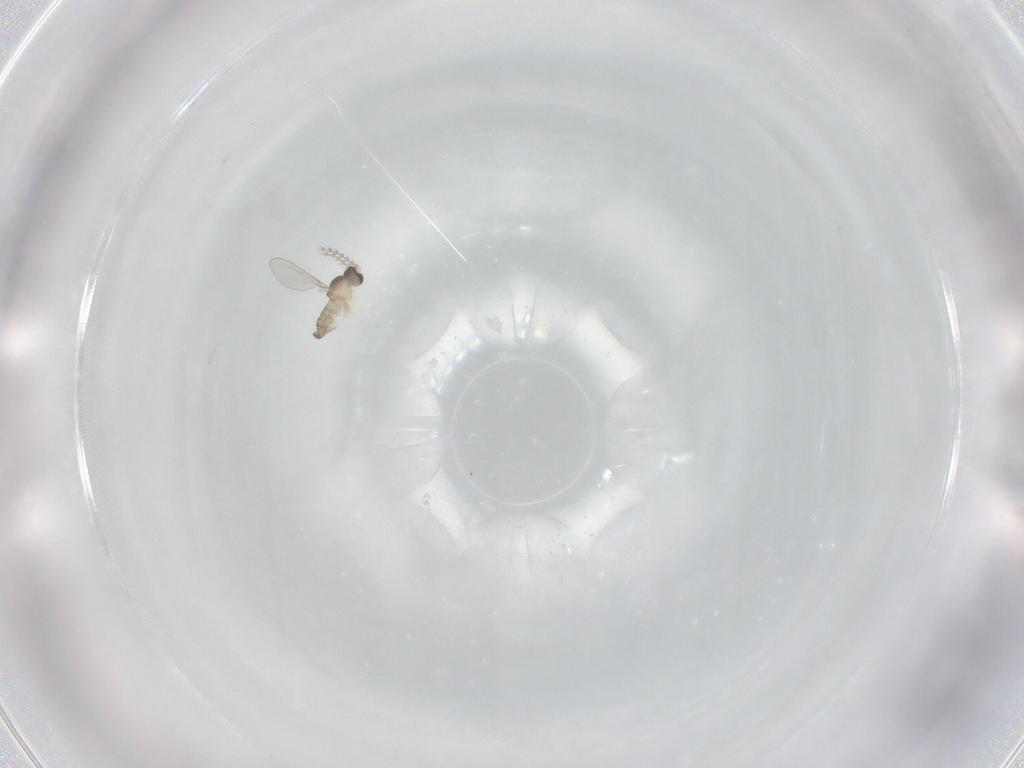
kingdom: Animalia
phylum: Arthropoda
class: Insecta
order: Diptera
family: Cecidomyiidae
